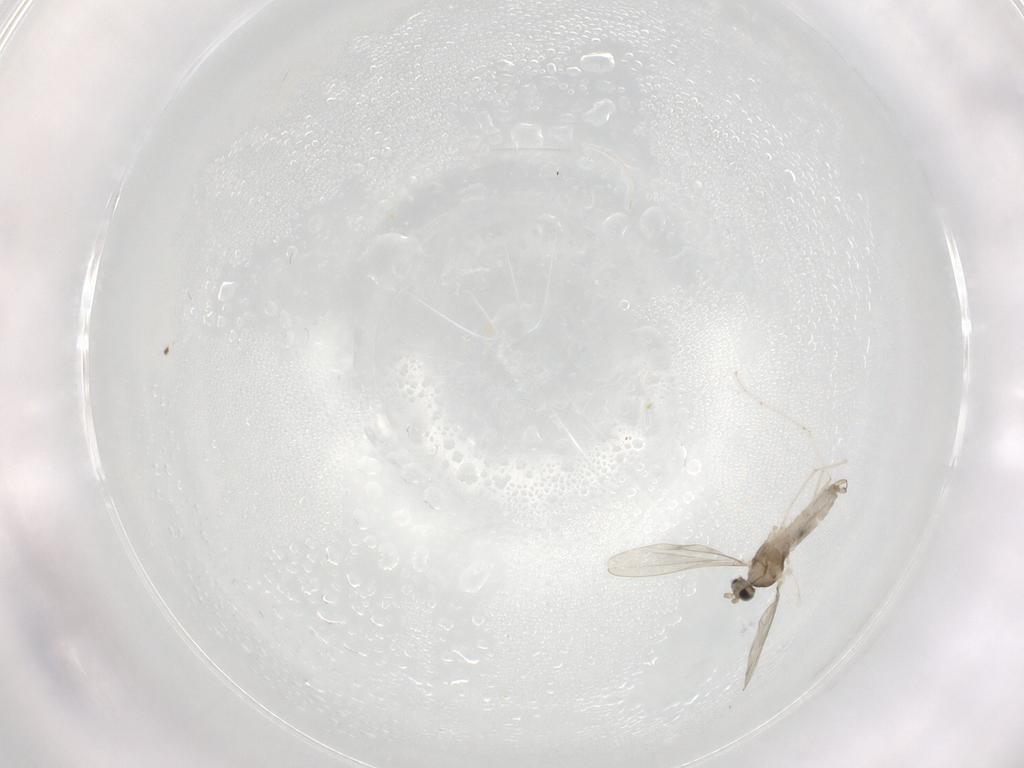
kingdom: Animalia
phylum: Arthropoda
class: Insecta
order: Diptera
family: Cecidomyiidae
